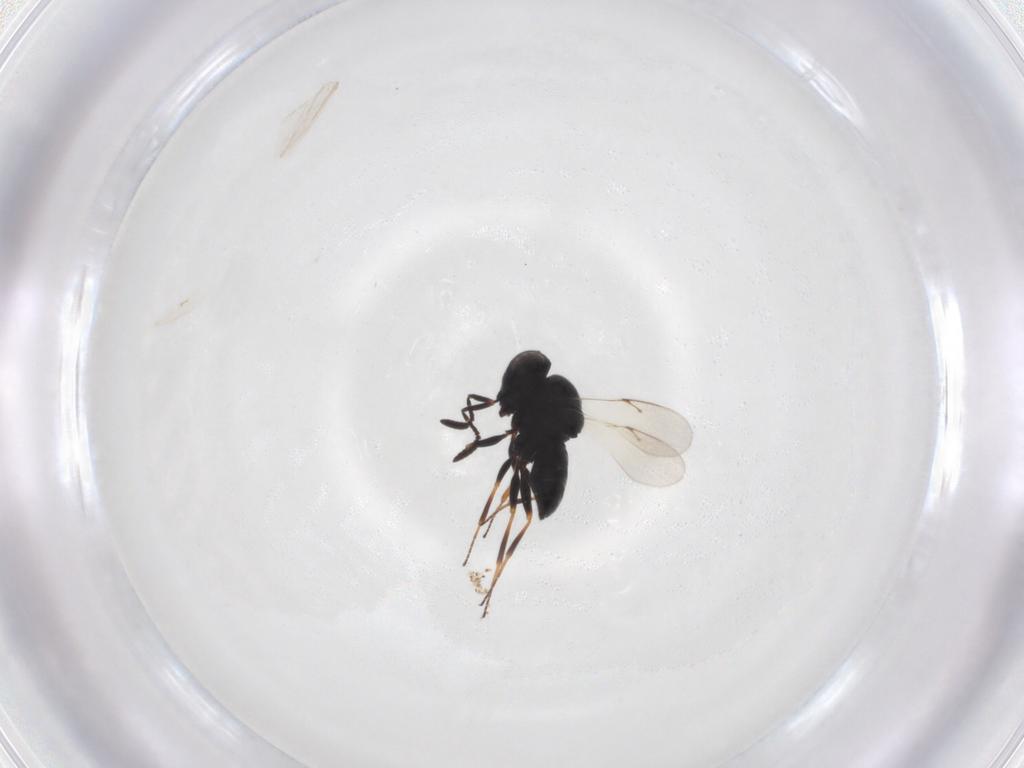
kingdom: Animalia
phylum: Arthropoda
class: Insecta
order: Hymenoptera
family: Scelionidae
